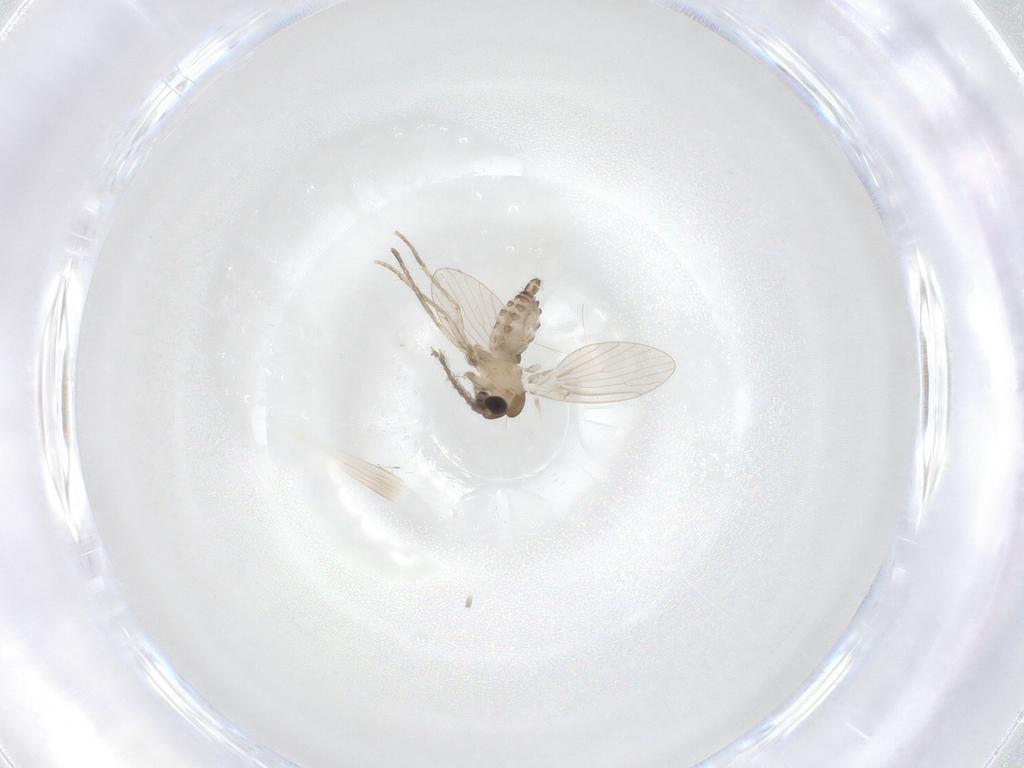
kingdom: Animalia
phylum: Arthropoda
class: Insecta
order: Diptera
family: Limoniidae
